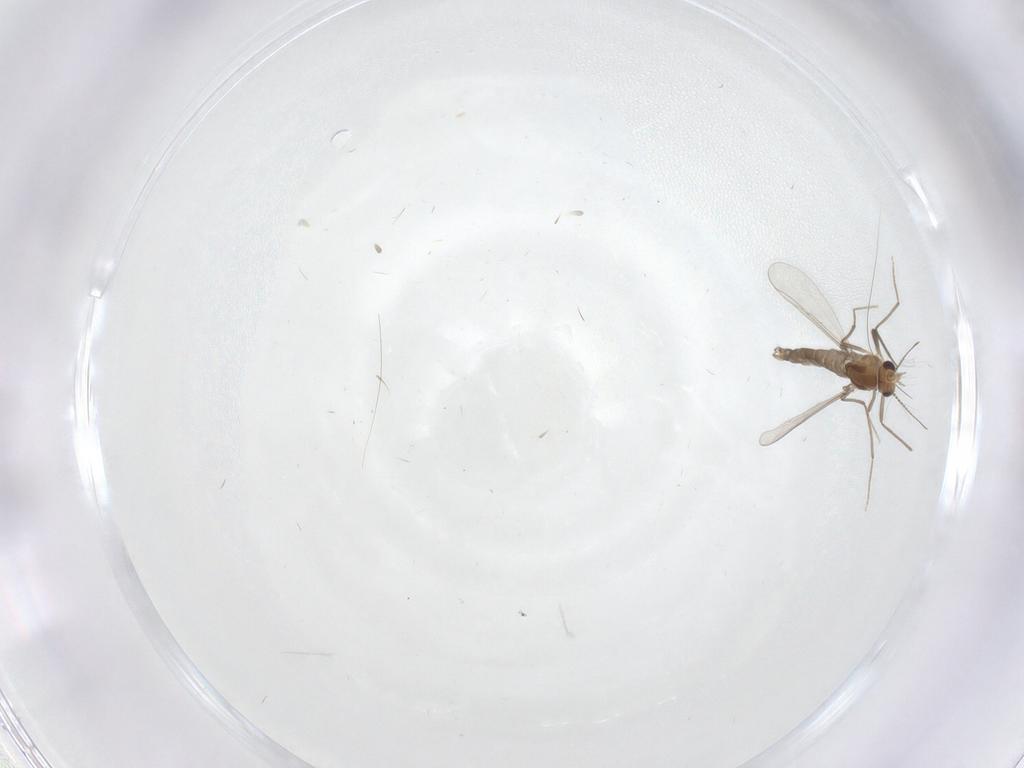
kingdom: Animalia
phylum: Arthropoda
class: Insecta
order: Diptera
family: Chironomidae
